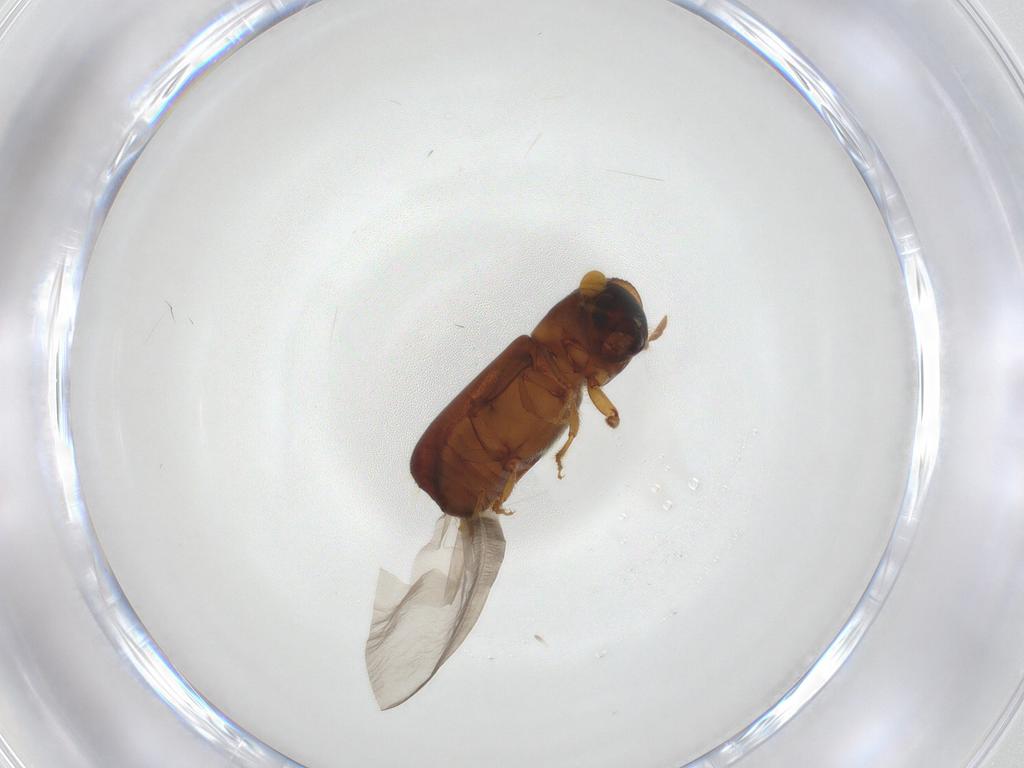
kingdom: Animalia
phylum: Arthropoda
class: Insecta
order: Coleoptera
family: Curculionidae
